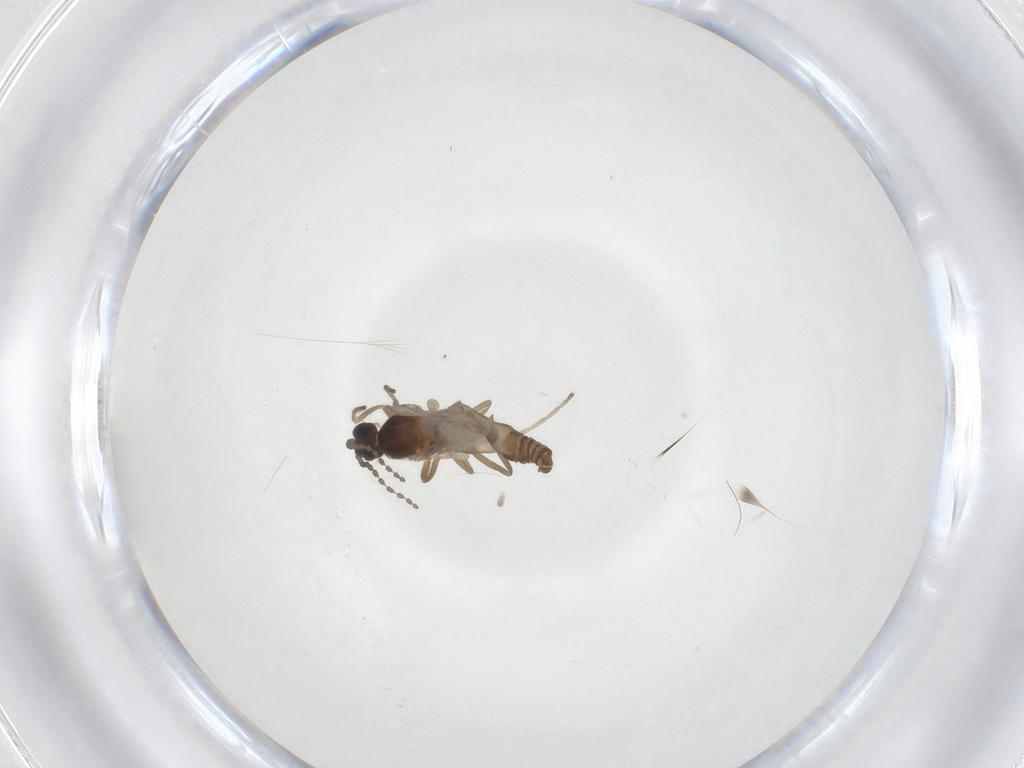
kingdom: Animalia
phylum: Arthropoda
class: Insecta
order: Diptera
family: Cecidomyiidae
